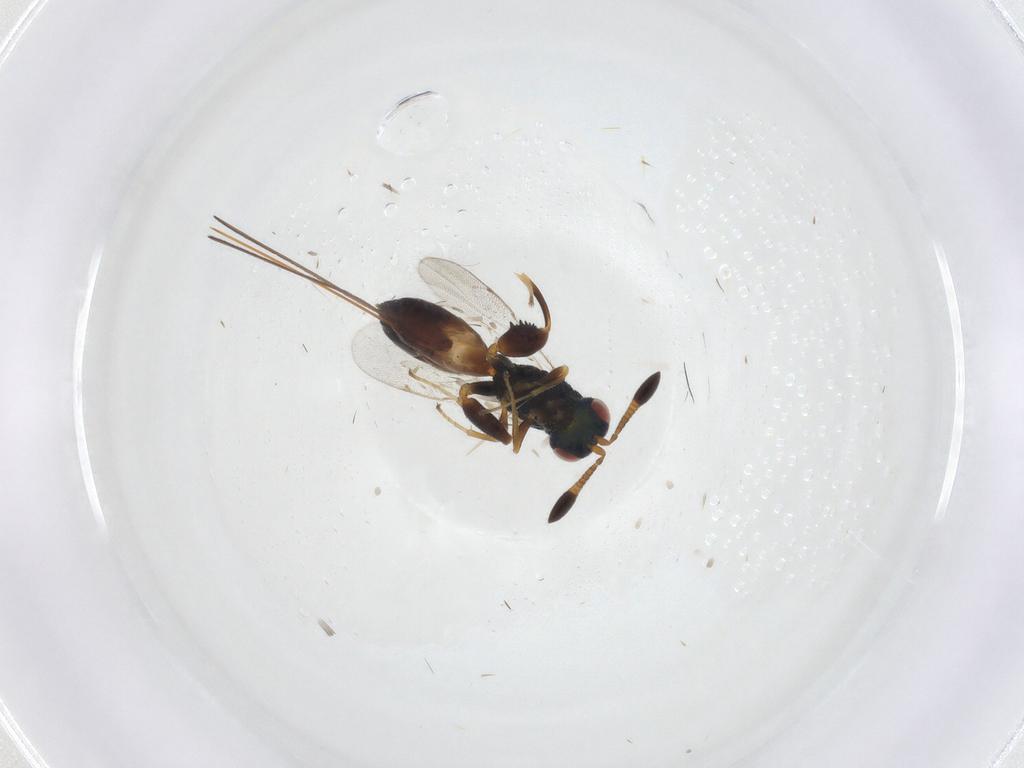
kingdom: Animalia
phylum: Arthropoda
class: Insecta
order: Hymenoptera
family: Torymidae
